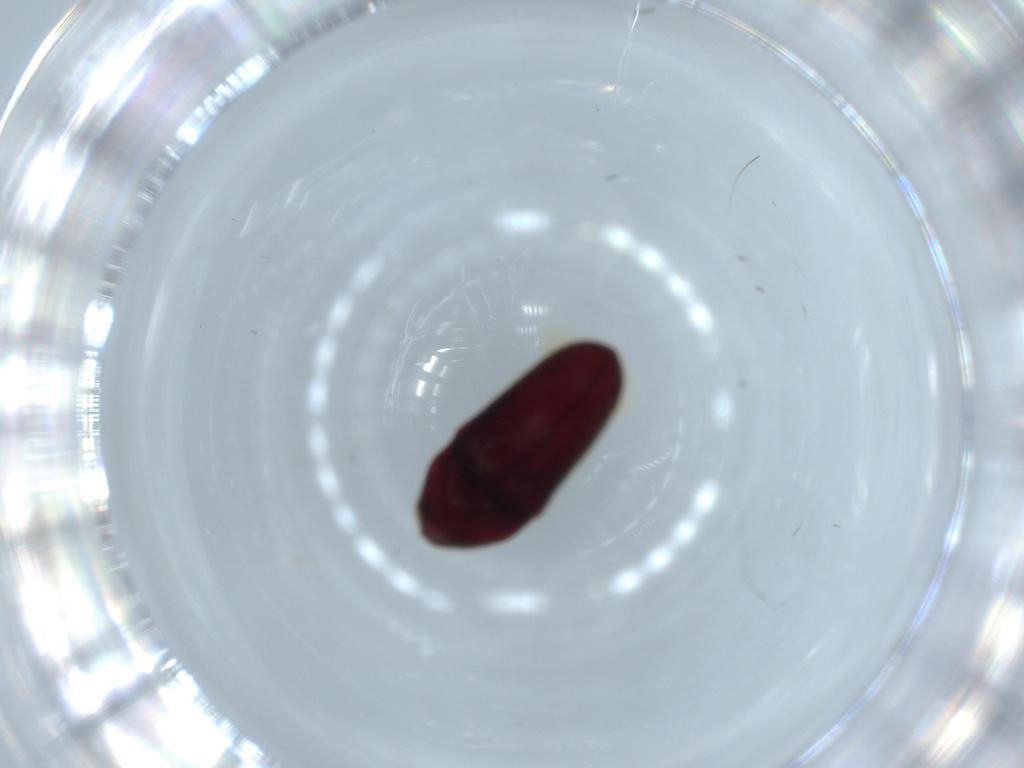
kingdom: Animalia
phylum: Arthropoda
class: Insecta
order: Coleoptera
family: Throscidae
